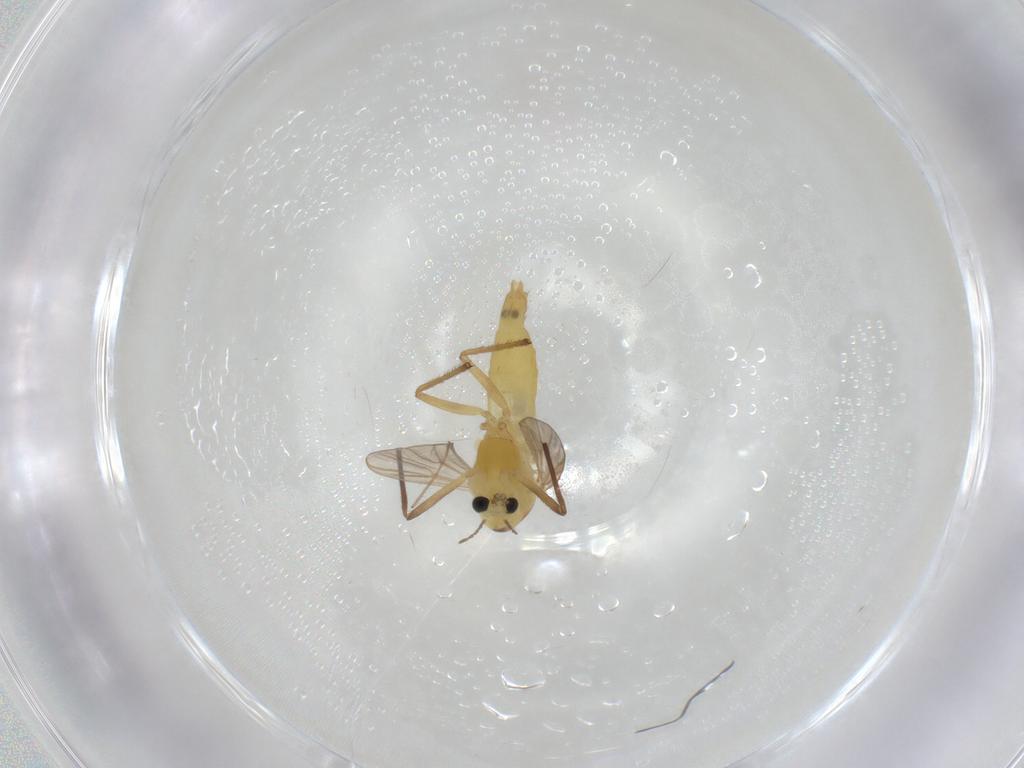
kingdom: Animalia
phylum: Arthropoda
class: Insecta
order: Diptera
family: Chironomidae
